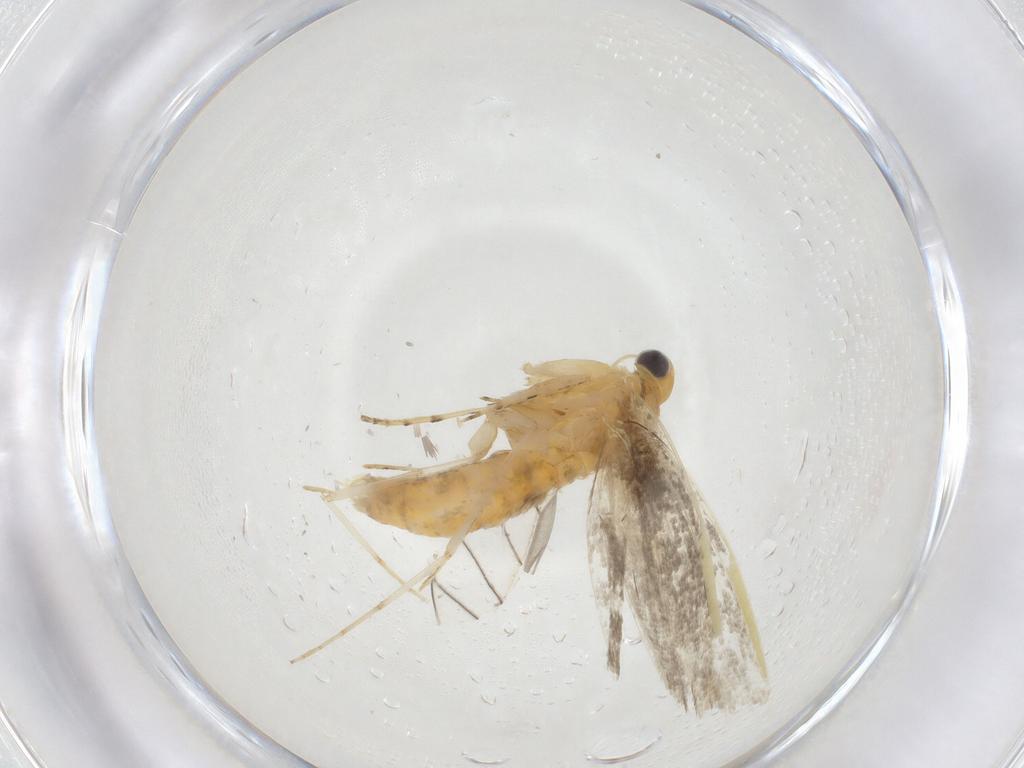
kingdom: Animalia
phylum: Arthropoda
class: Insecta
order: Lepidoptera
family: Argyresthiidae
